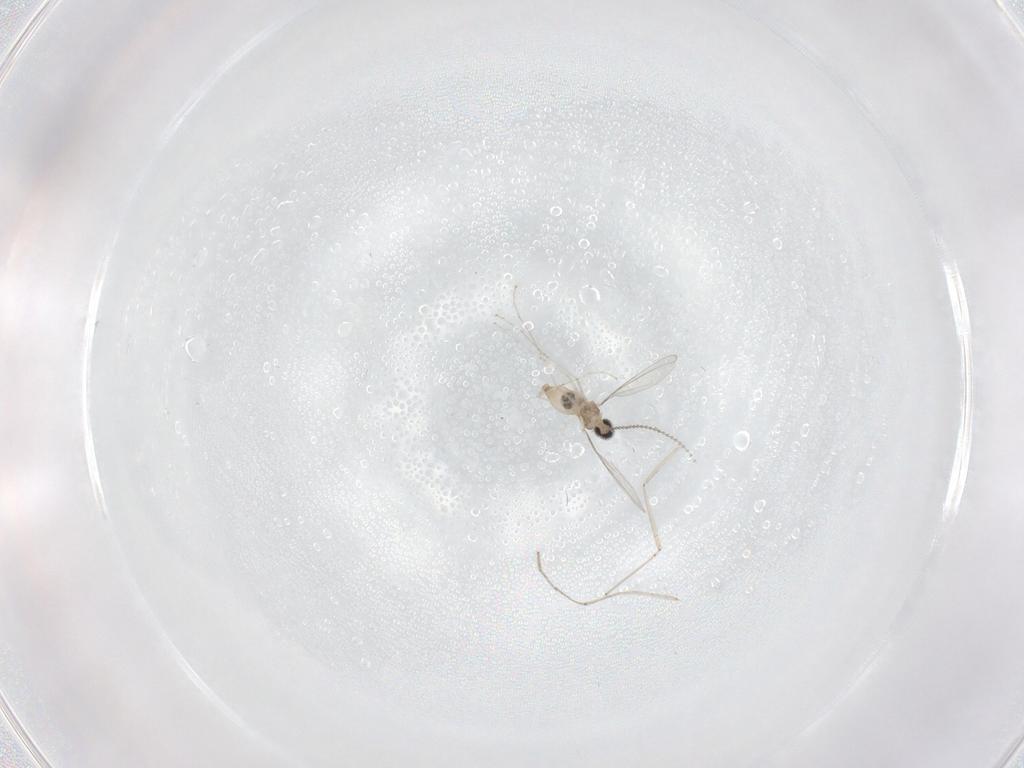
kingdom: Animalia
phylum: Arthropoda
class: Insecta
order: Diptera
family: Cecidomyiidae
